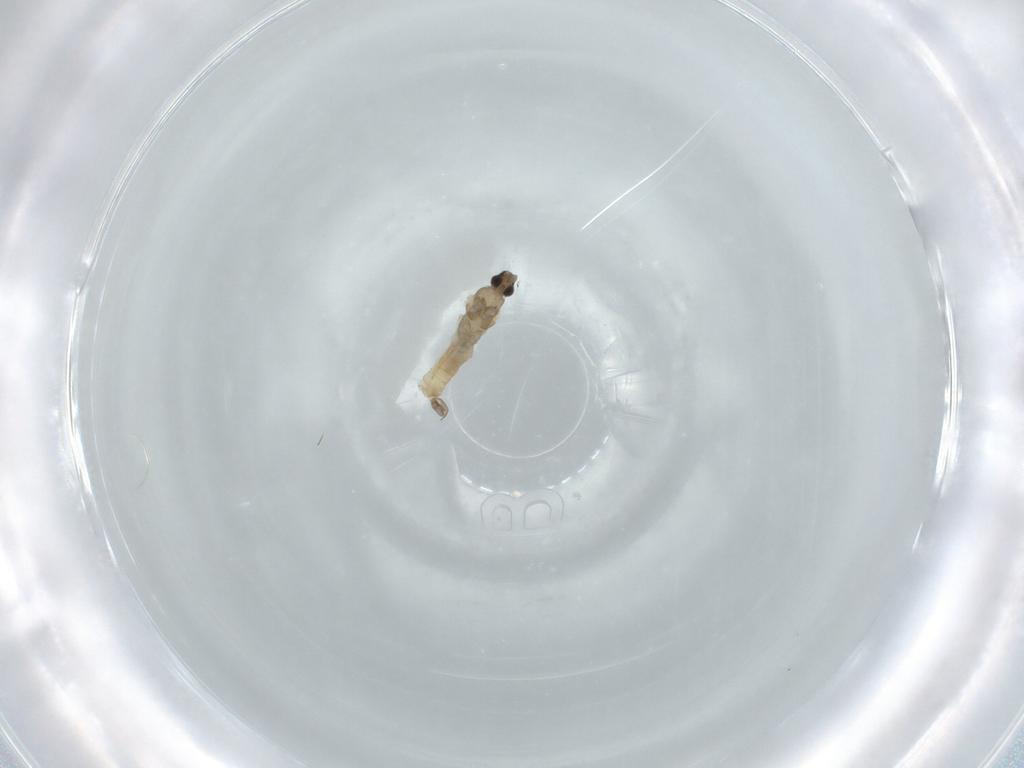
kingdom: Animalia
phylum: Arthropoda
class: Insecta
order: Diptera
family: Cecidomyiidae
